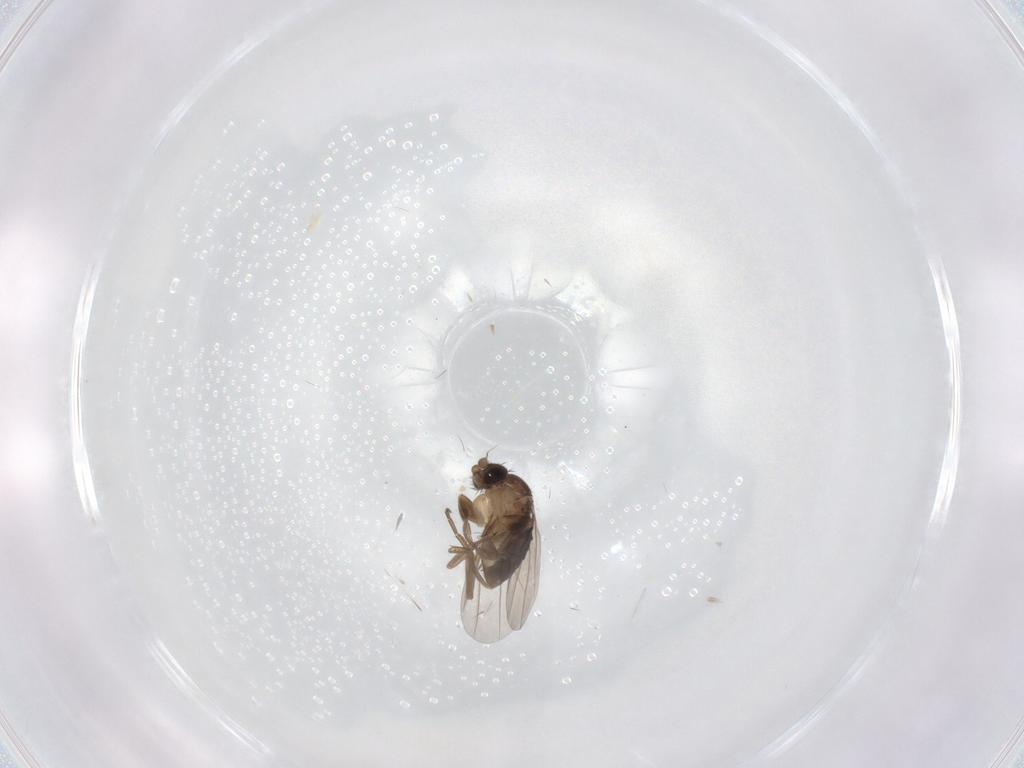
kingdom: Animalia
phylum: Arthropoda
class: Insecta
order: Diptera
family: Phoridae
